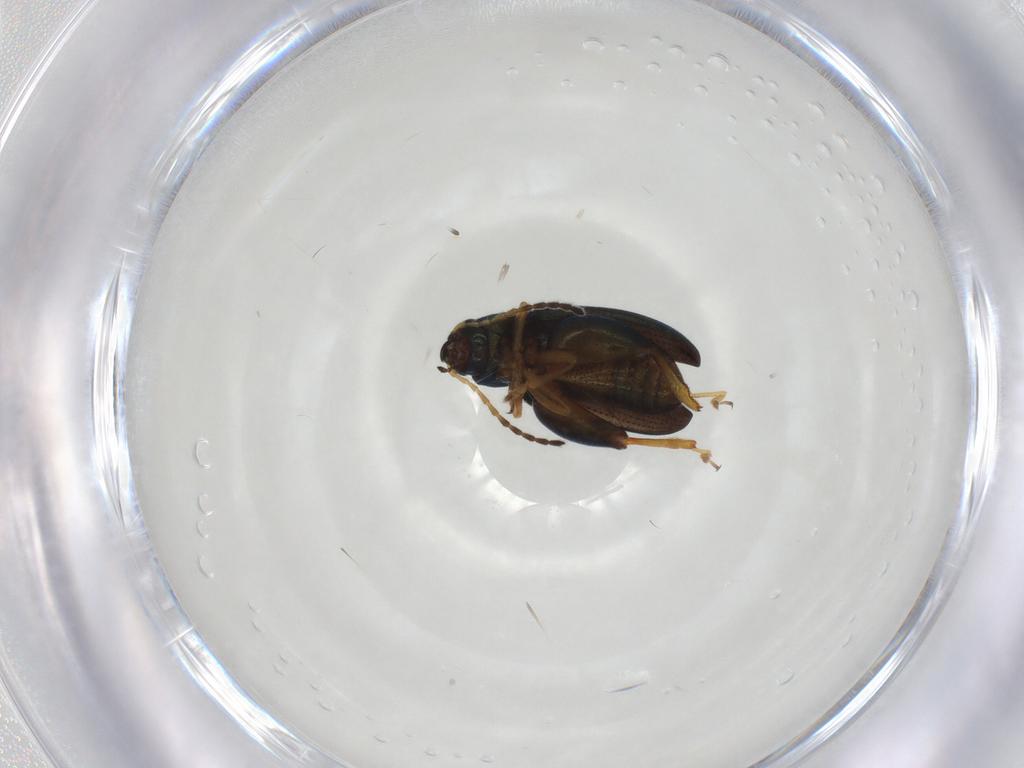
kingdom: Animalia
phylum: Arthropoda
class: Insecta
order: Coleoptera
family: Chrysomelidae
